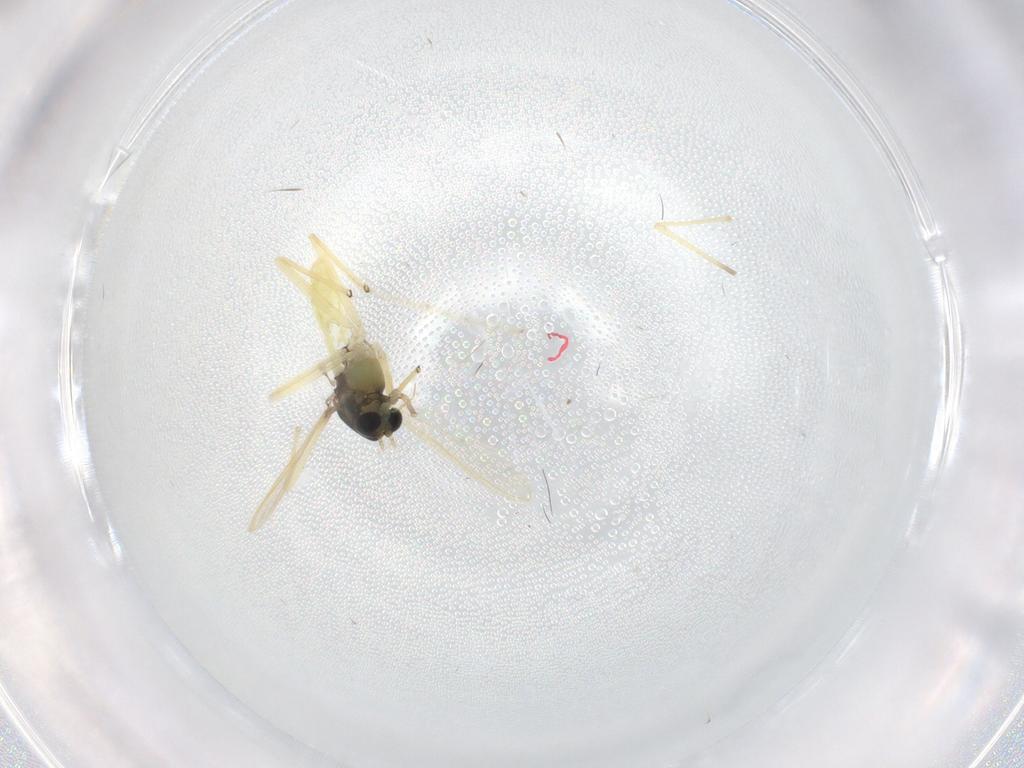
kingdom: Animalia
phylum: Arthropoda
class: Insecta
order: Diptera
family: Chironomidae
